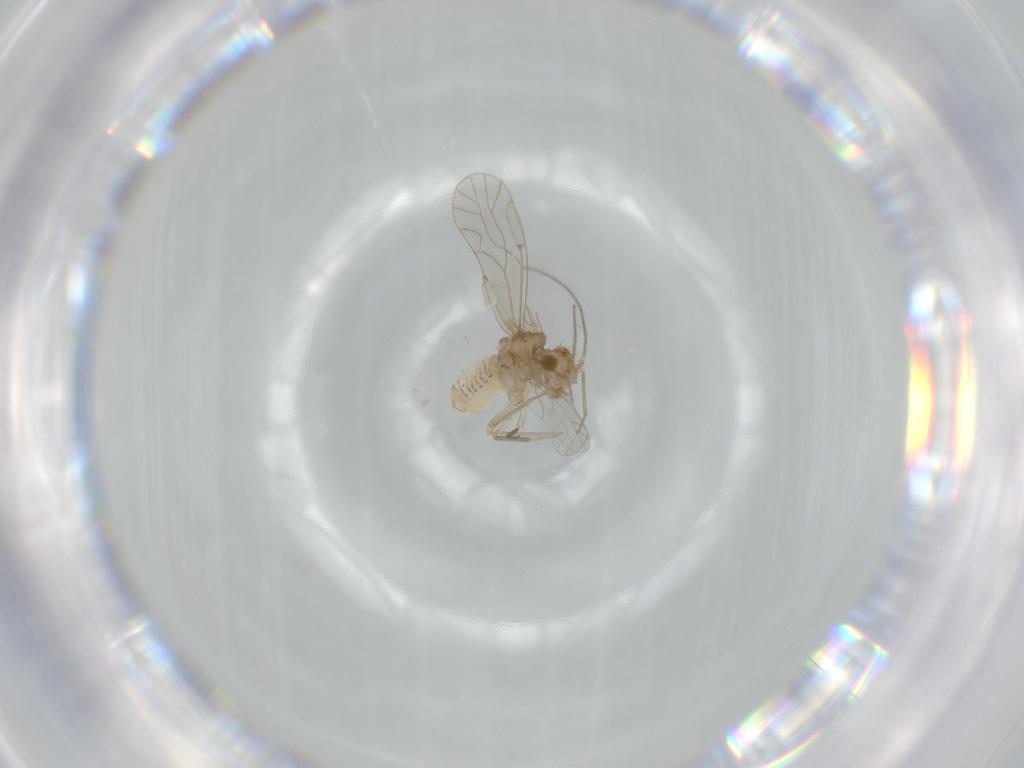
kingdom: Animalia
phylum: Arthropoda
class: Insecta
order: Psocodea
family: Lachesillidae
